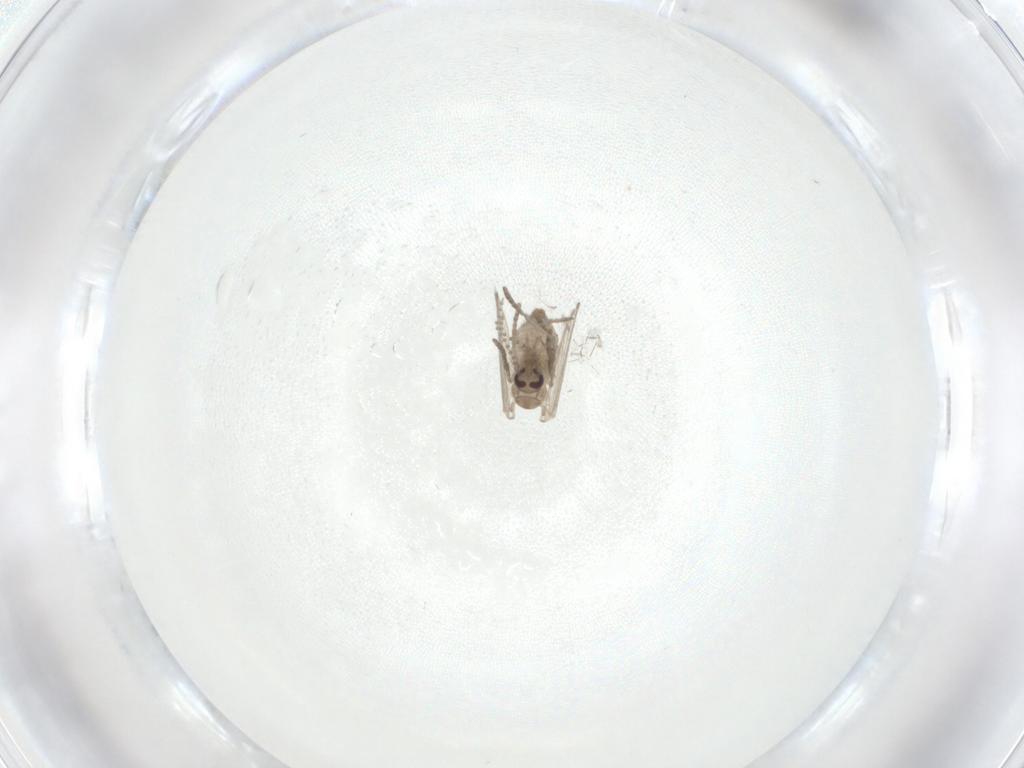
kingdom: Animalia
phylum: Arthropoda
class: Insecta
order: Diptera
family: Psychodidae
